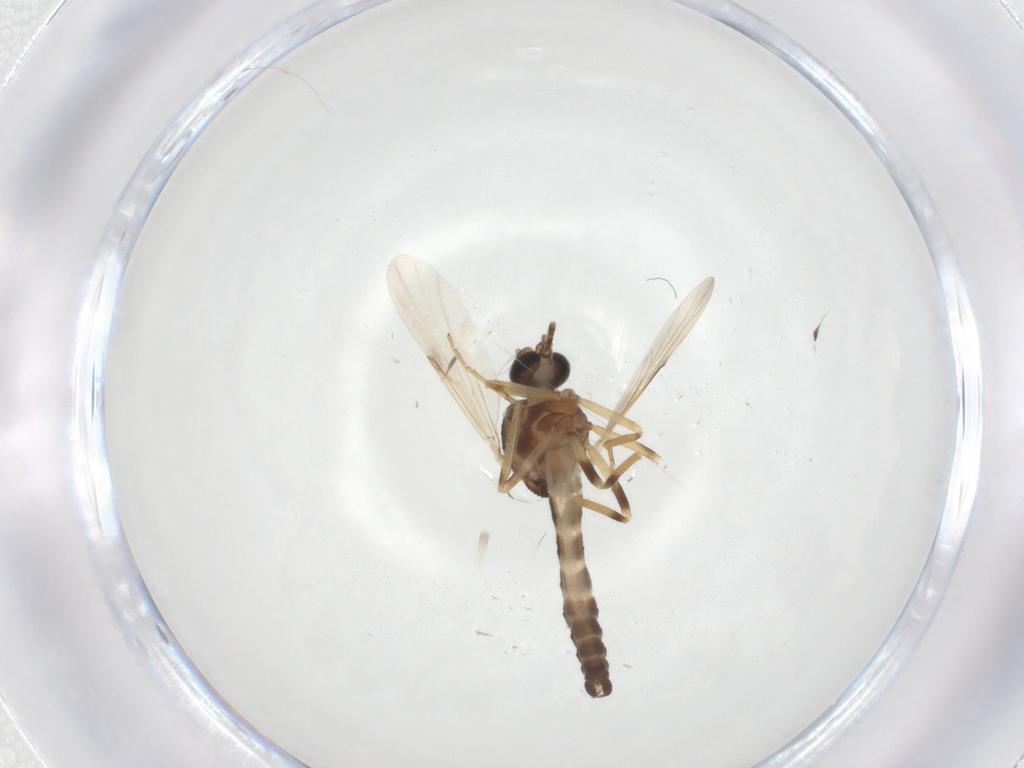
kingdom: Animalia
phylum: Arthropoda
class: Insecta
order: Diptera
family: Ceratopogonidae
